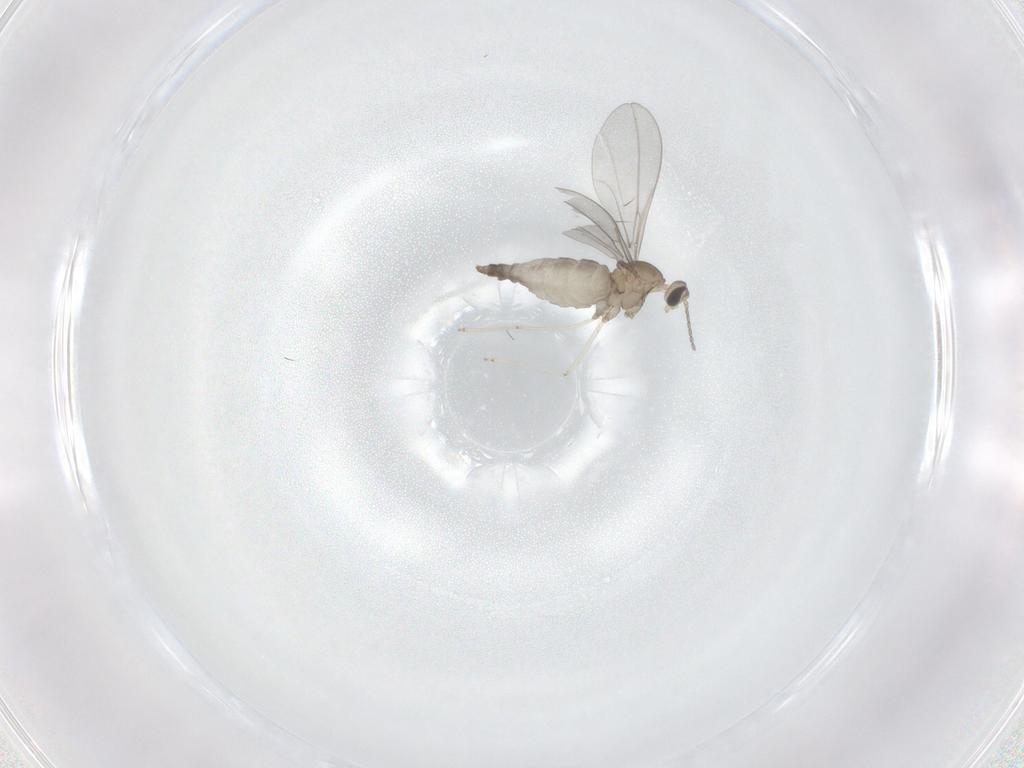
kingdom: Animalia
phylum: Arthropoda
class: Insecta
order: Diptera
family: Cecidomyiidae
